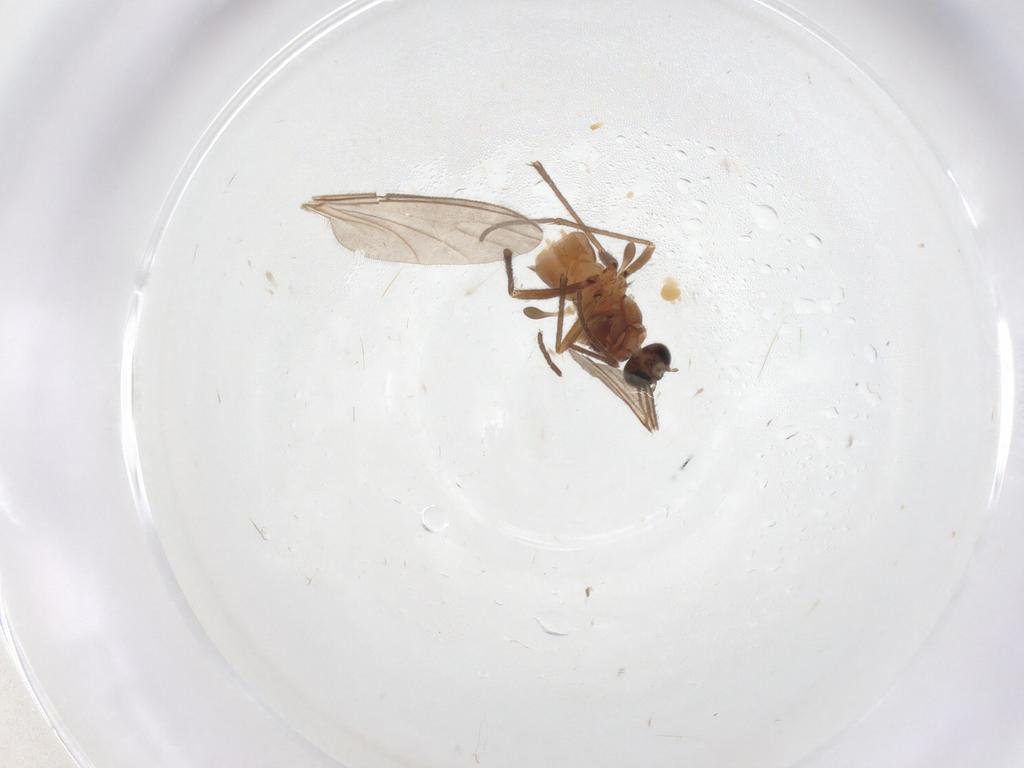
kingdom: Animalia
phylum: Arthropoda
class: Insecta
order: Diptera
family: Sciaridae
